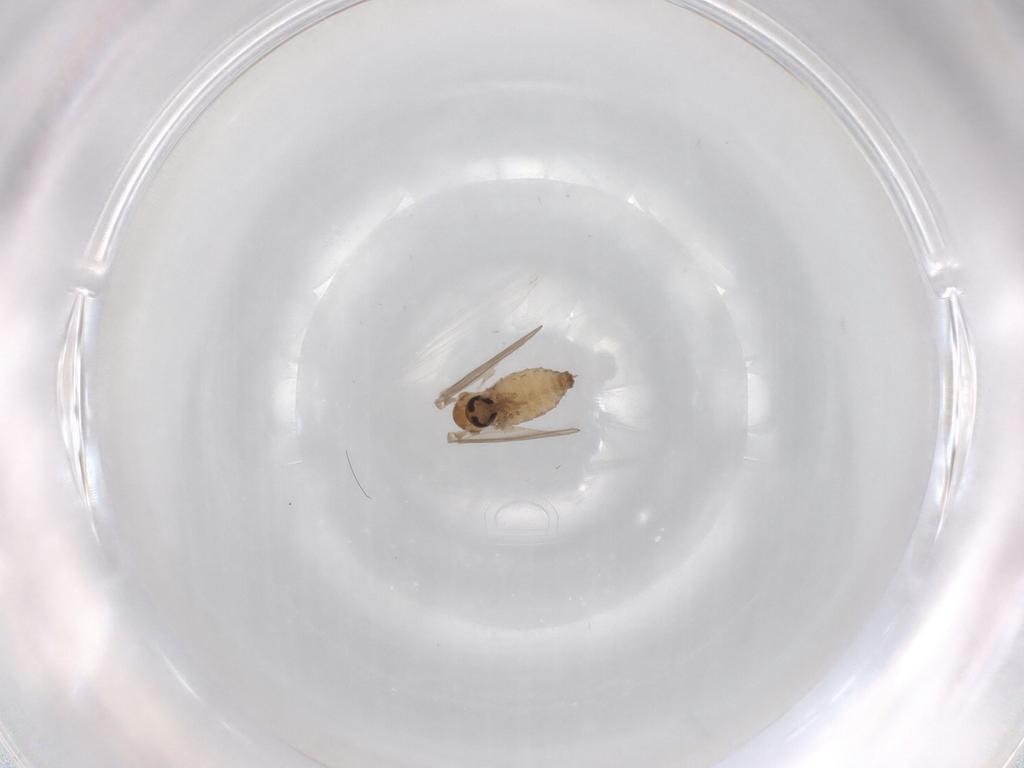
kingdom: Animalia
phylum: Arthropoda
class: Insecta
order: Diptera
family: Psychodidae
